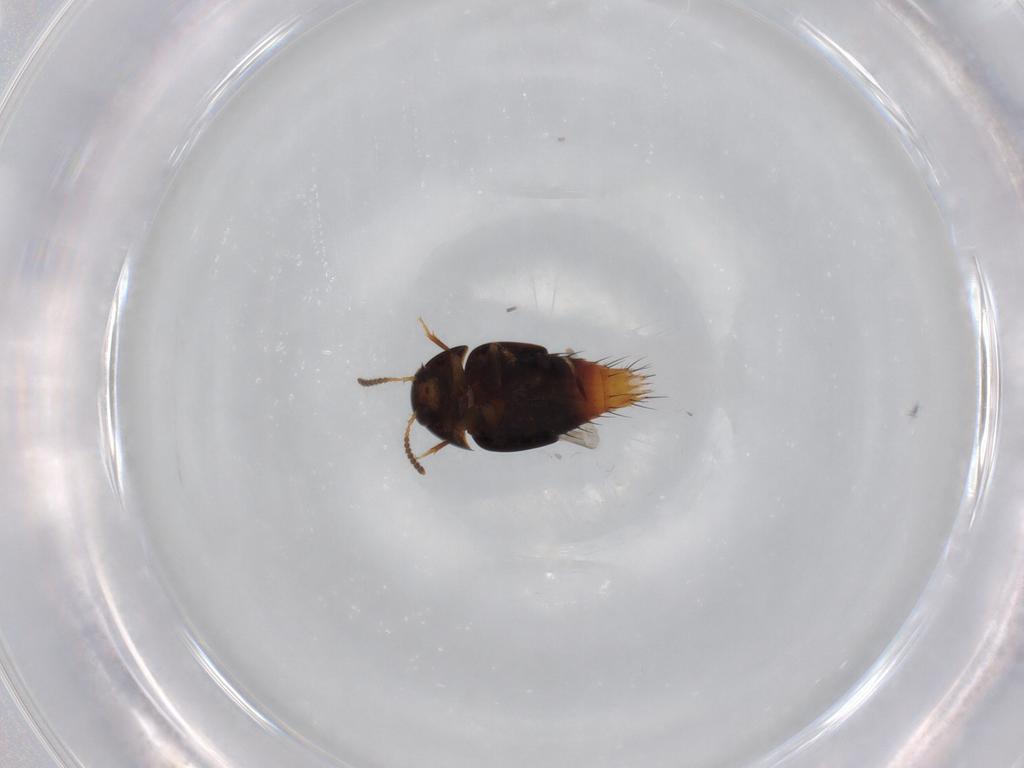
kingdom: Animalia
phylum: Arthropoda
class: Insecta
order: Coleoptera
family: Staphylinidae
